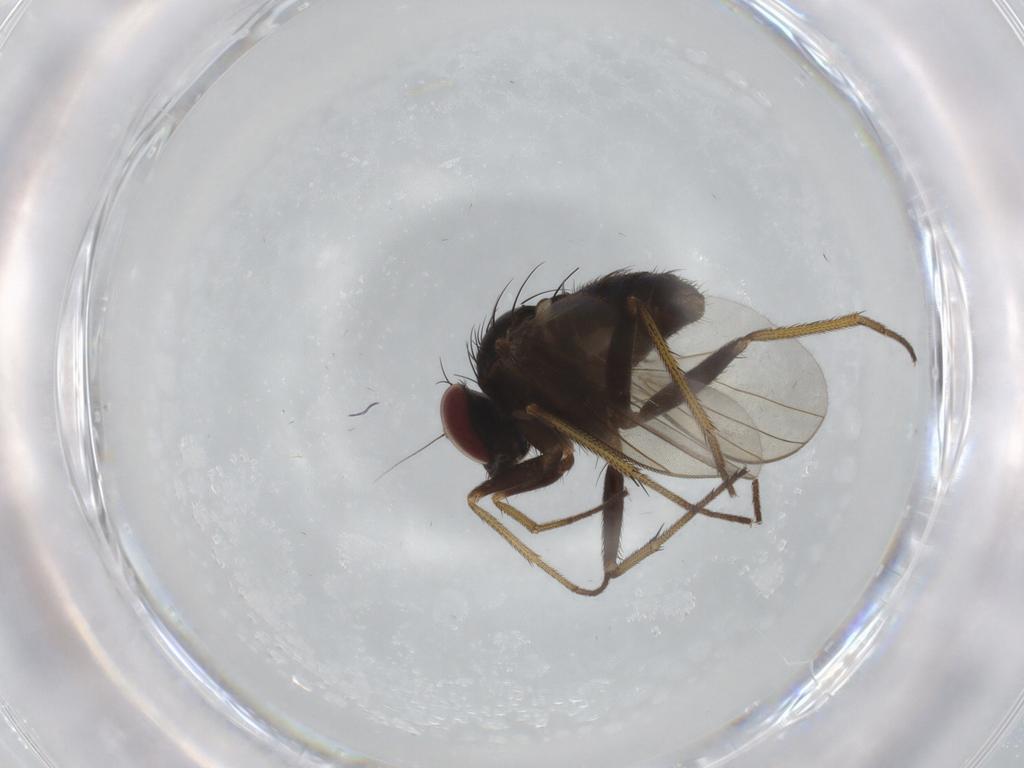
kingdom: Animalia
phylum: Arthropoda
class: Insecta
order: Diptera
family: Dolichopodidae
